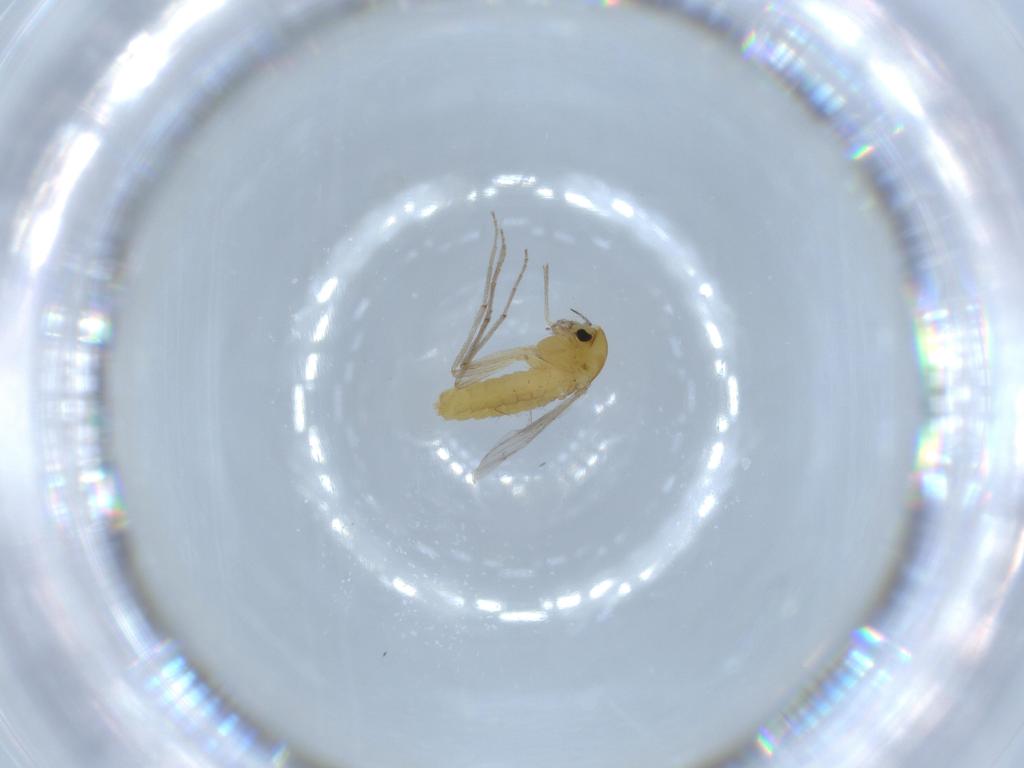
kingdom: Animalia
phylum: Arthropoda
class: Insecta
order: Diptera
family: Chironomidae
